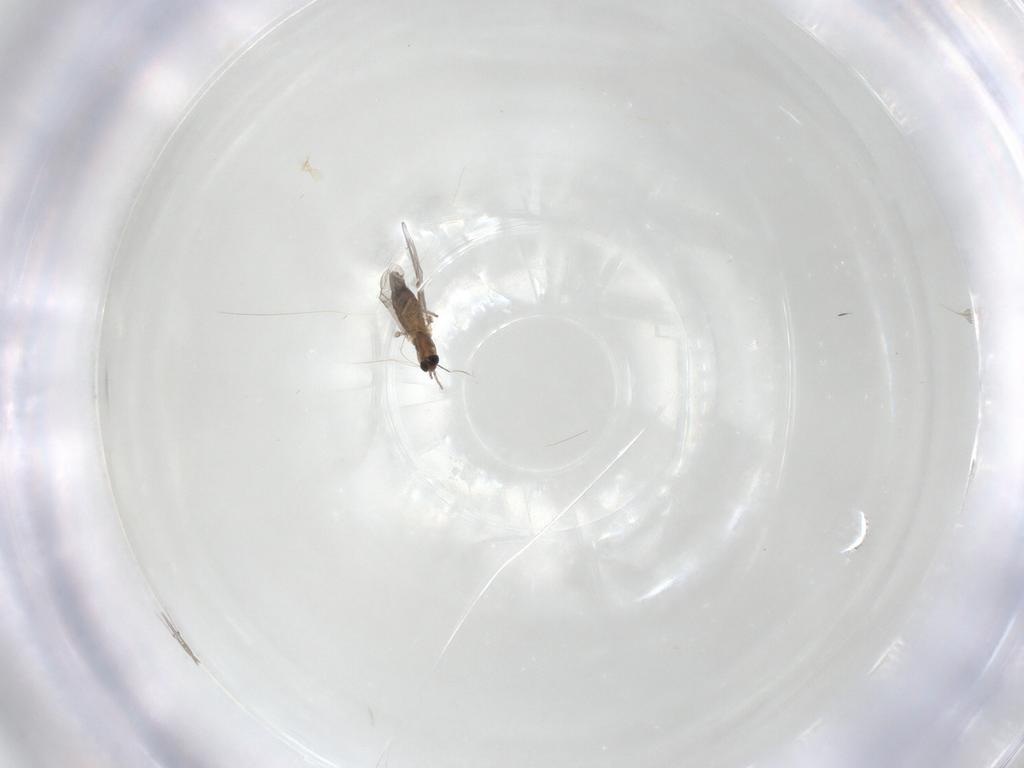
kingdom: Animalia
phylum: Arthropoda
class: Insecta
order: Diptera
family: Chironomidae
